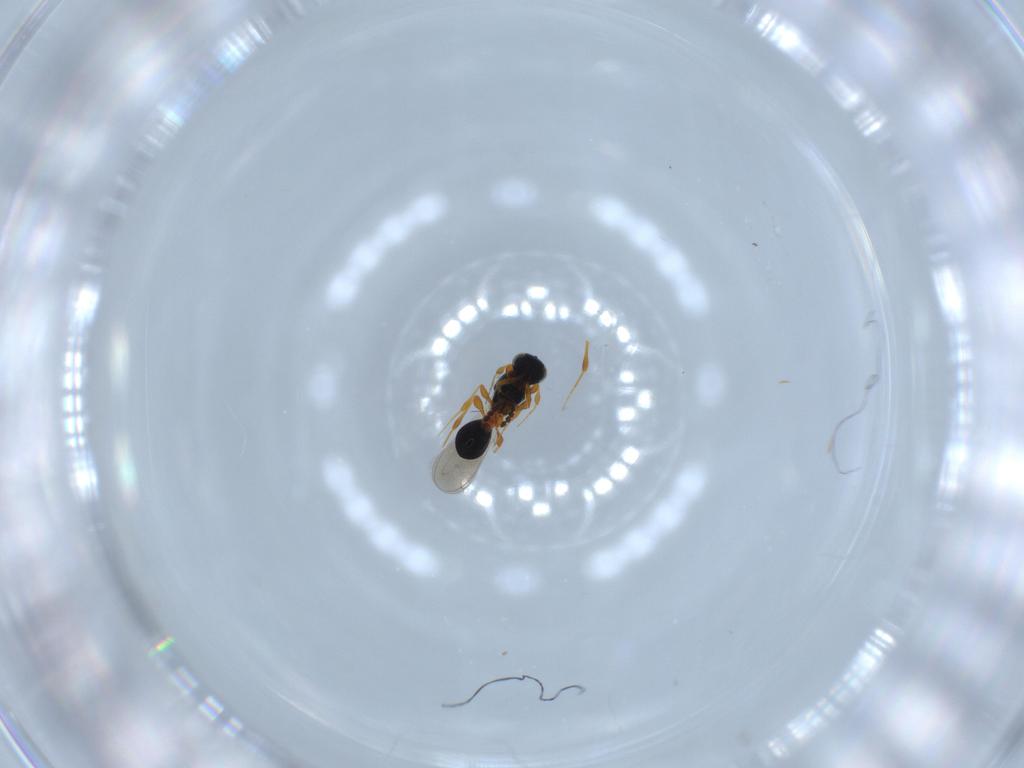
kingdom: Animalia
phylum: Arthropoda
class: Insecta
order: Hymenoptera
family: Platygastridae
